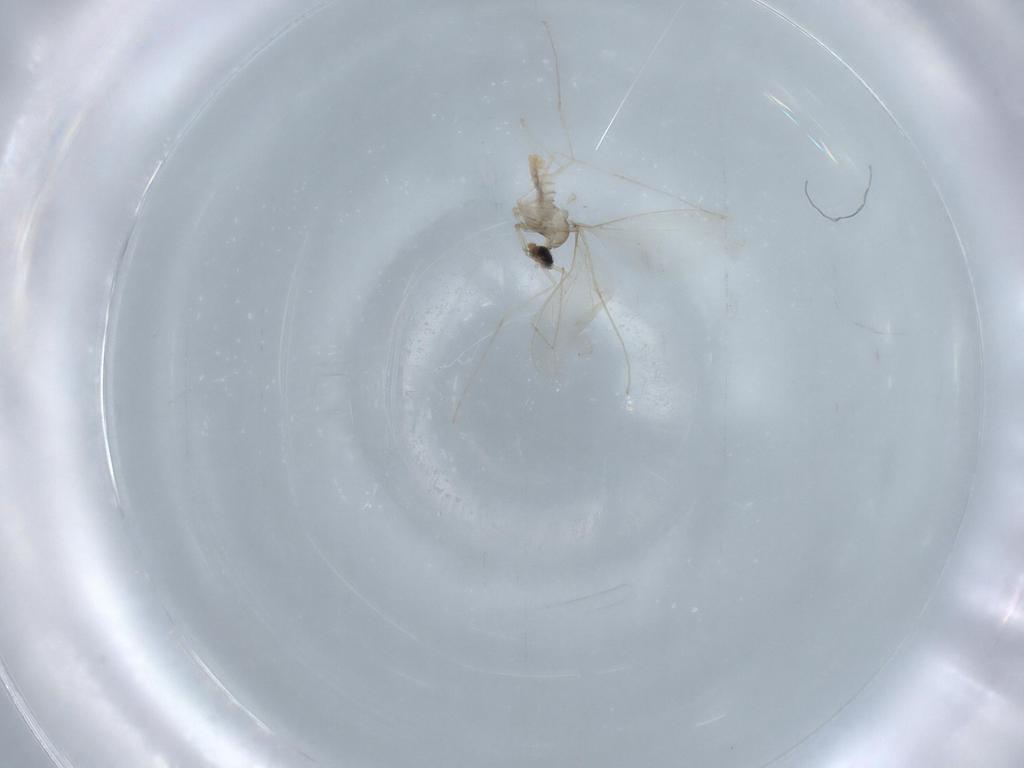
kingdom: Animalia
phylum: Arthropoda
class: Insecta
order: Diptera
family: Cecidomyiidae
